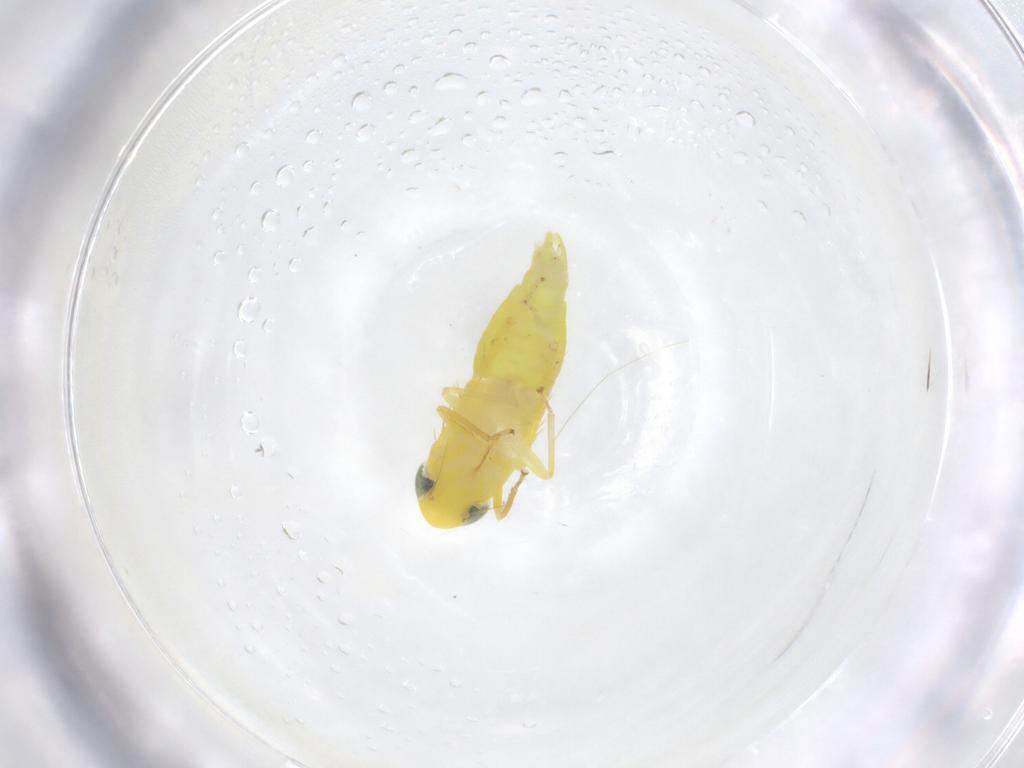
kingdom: Animalia
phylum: Arthropoda
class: Insecta
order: Hemiptera
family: Cicadellidae
